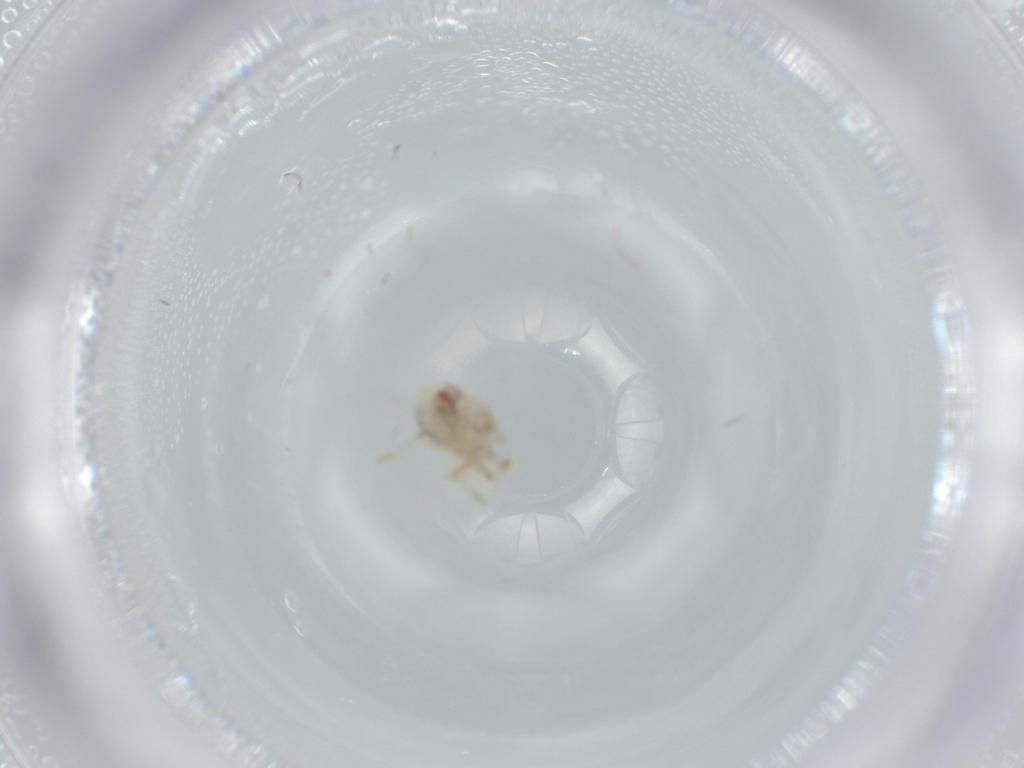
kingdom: Animalia
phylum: Arthropoda
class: Insecta
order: Hemiptera
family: Acanaloniidae
